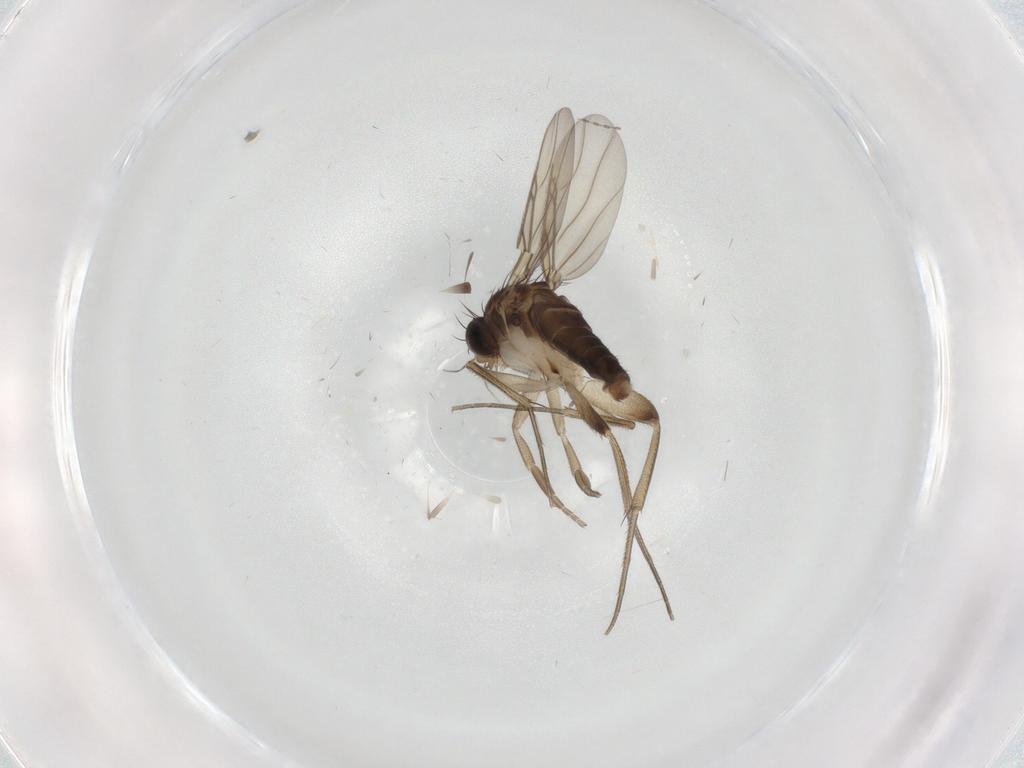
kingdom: Animalia
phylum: Arthropoda
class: Insecta
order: Diptera
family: Phoridae
